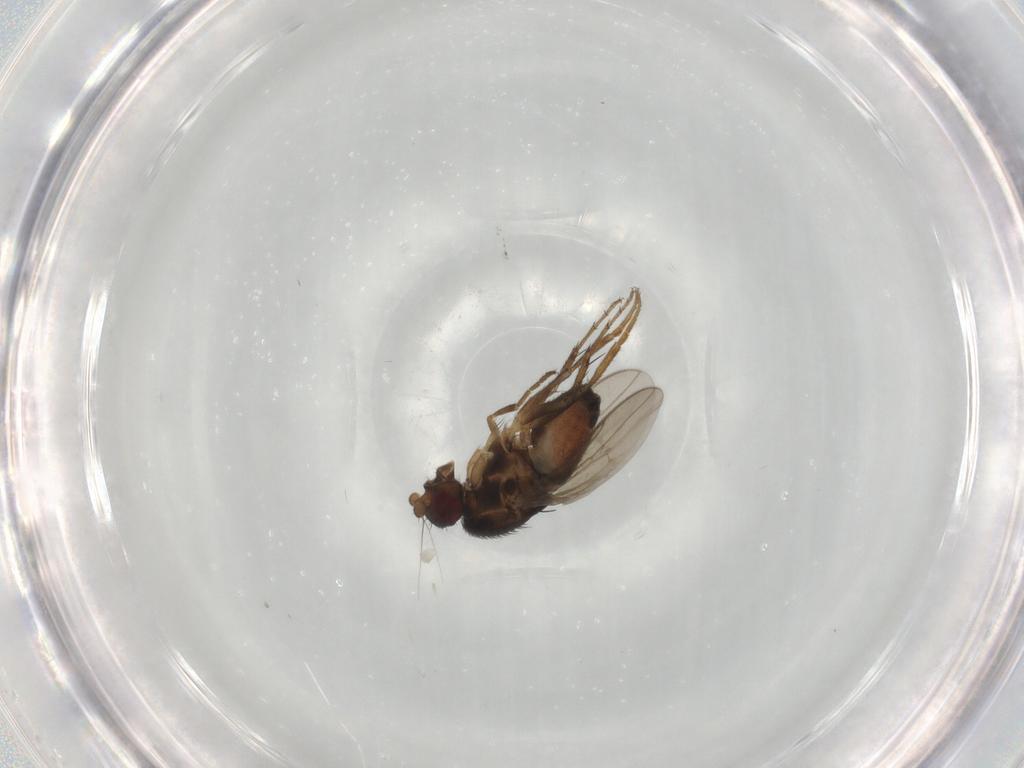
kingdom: Animalia
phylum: Arthropoda
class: Insecta
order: Diptera
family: Sphaeroceridae
